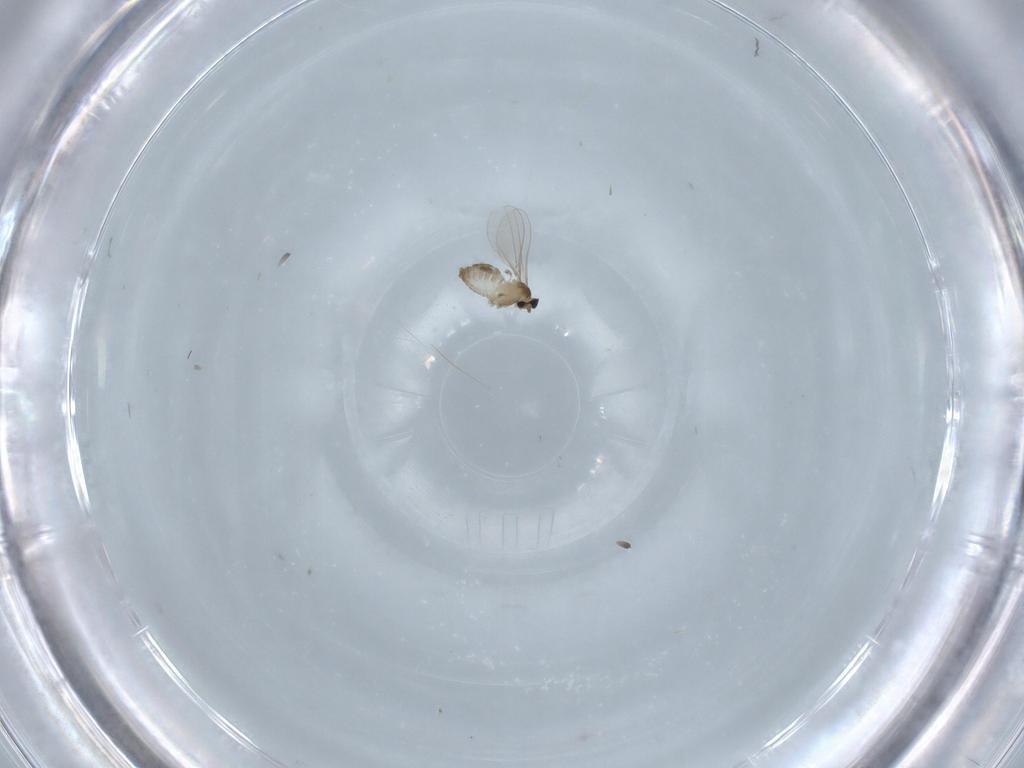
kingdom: Animalia
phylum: Arthropoda
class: Insecta
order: Diptera
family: Cecidomyiidae
